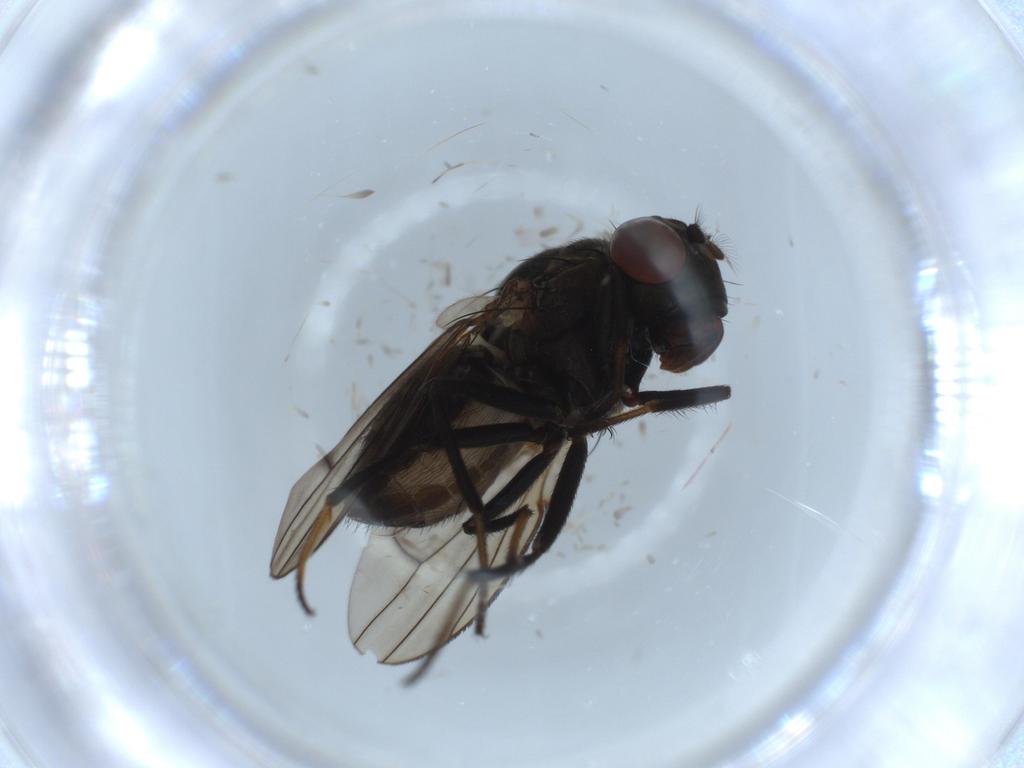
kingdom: Animalia
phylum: Arthropoda
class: Insecta
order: Diptera
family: Ephydridae
